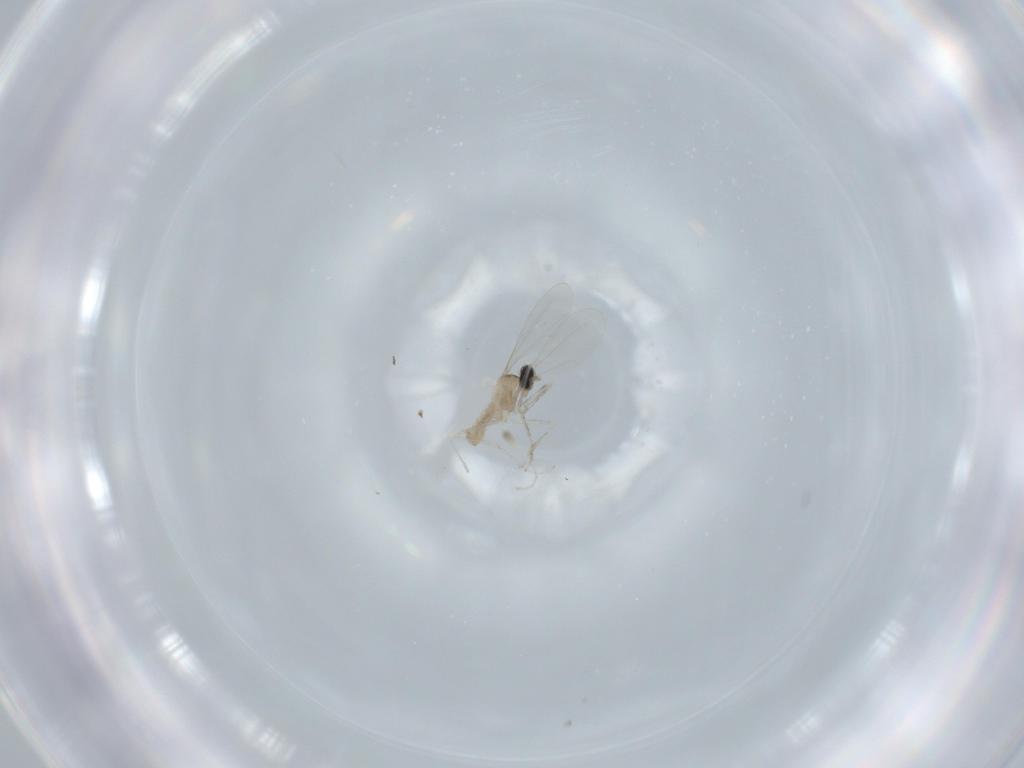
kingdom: Animalia
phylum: Arthropoda
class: Insecta
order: Diptera
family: Cecidomyiidae
